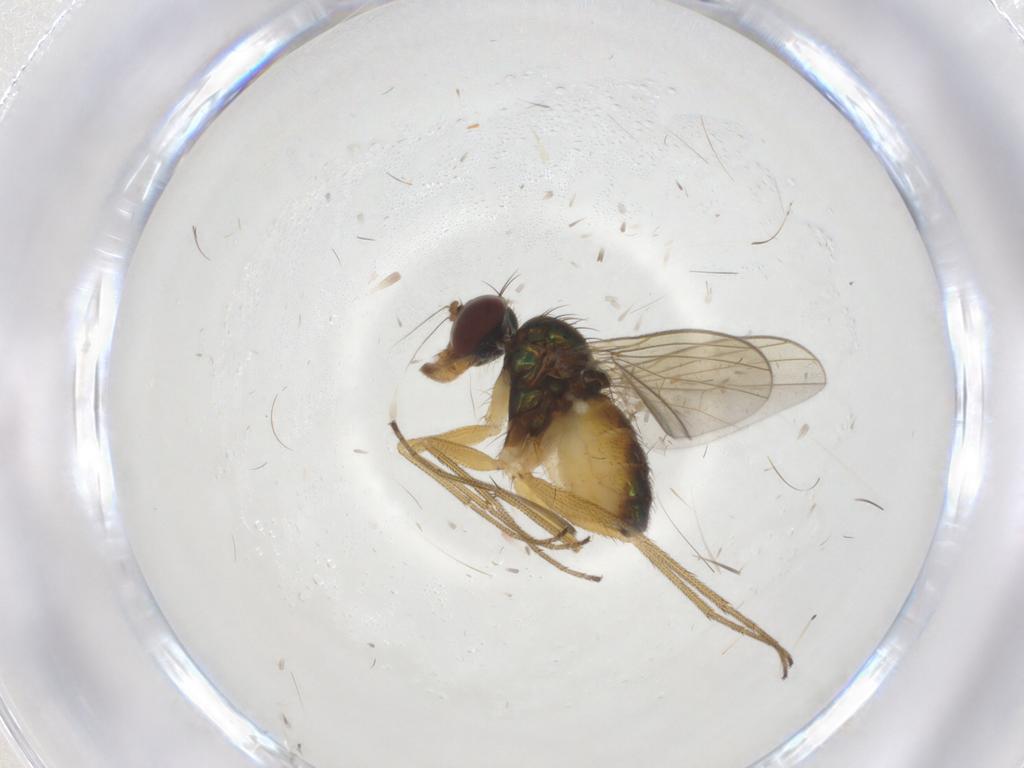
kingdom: Animalia
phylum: Arthropoda
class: Insecta
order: Diptera
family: Dolichopodidae
